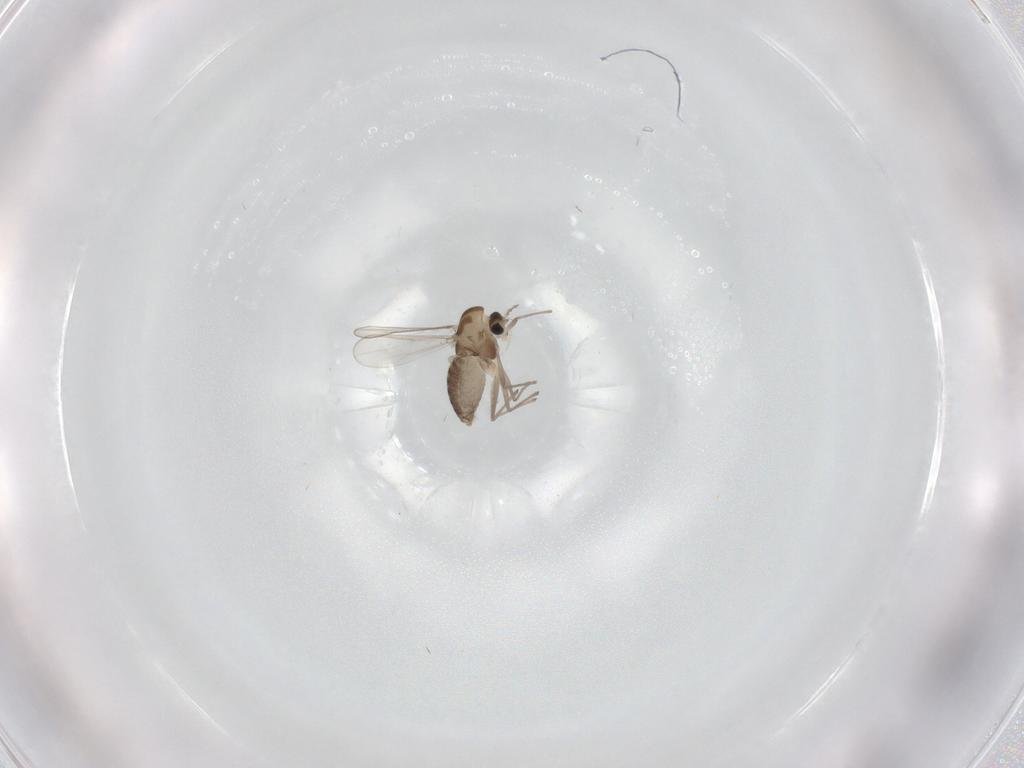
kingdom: Animalia
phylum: Arthropoda
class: Insecta
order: Diptera
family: Chironomidae
